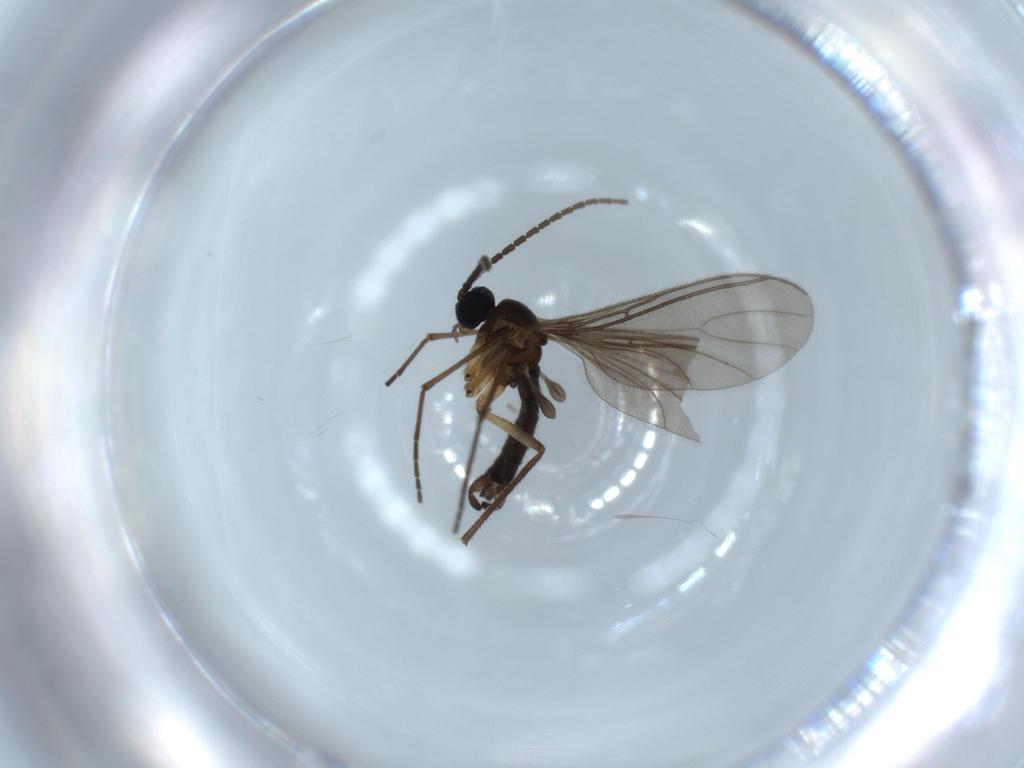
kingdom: Animalia
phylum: Arthropoda
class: Insecta
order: Diptera
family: Sciaridae
